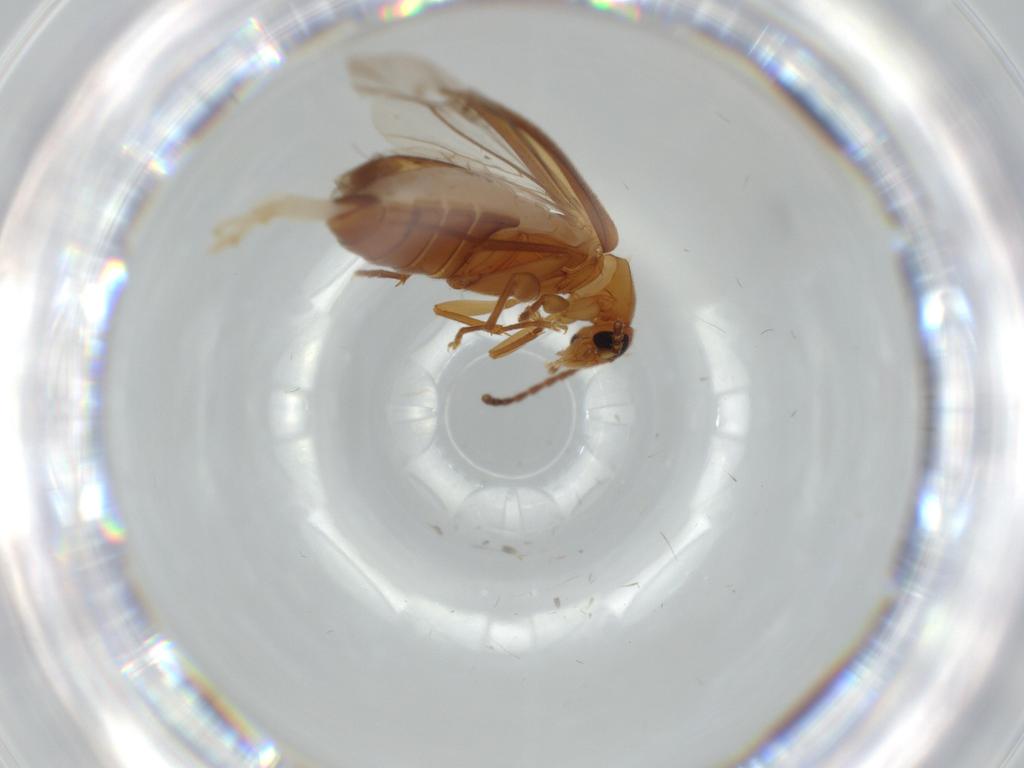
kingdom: Animalia
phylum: Arthropoda
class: Insecta
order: Coleoptera
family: Scraptiidae
